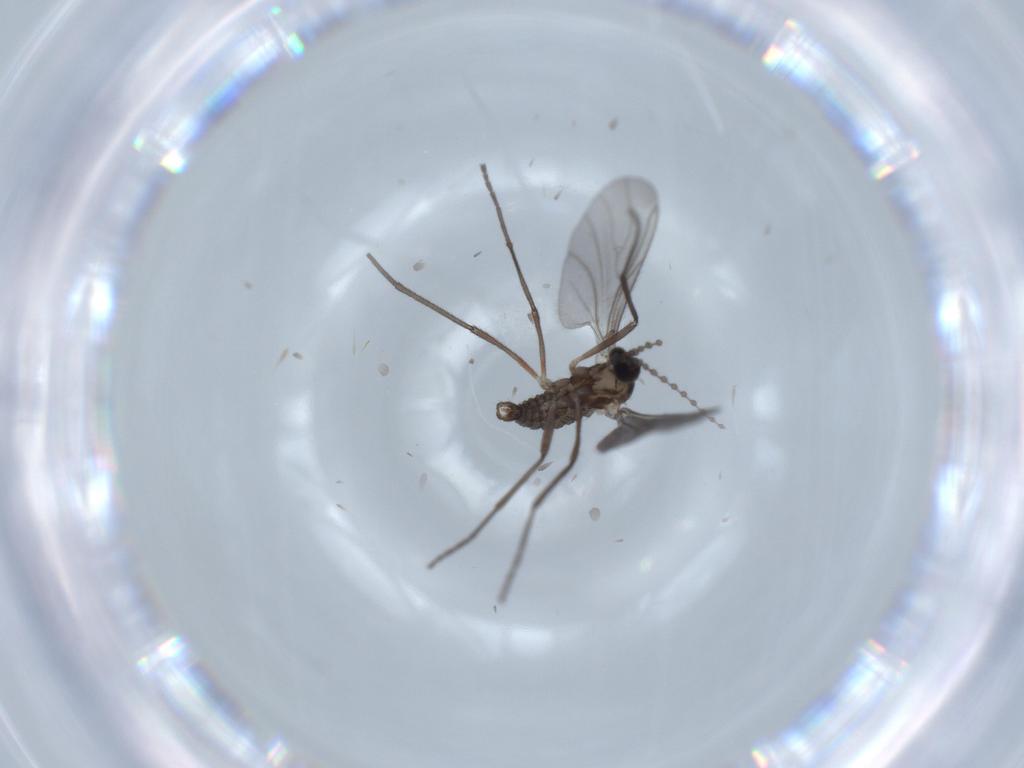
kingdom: Animalia
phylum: Arthropoda
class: Insecta
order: Diptera
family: Cecidomyiidae
